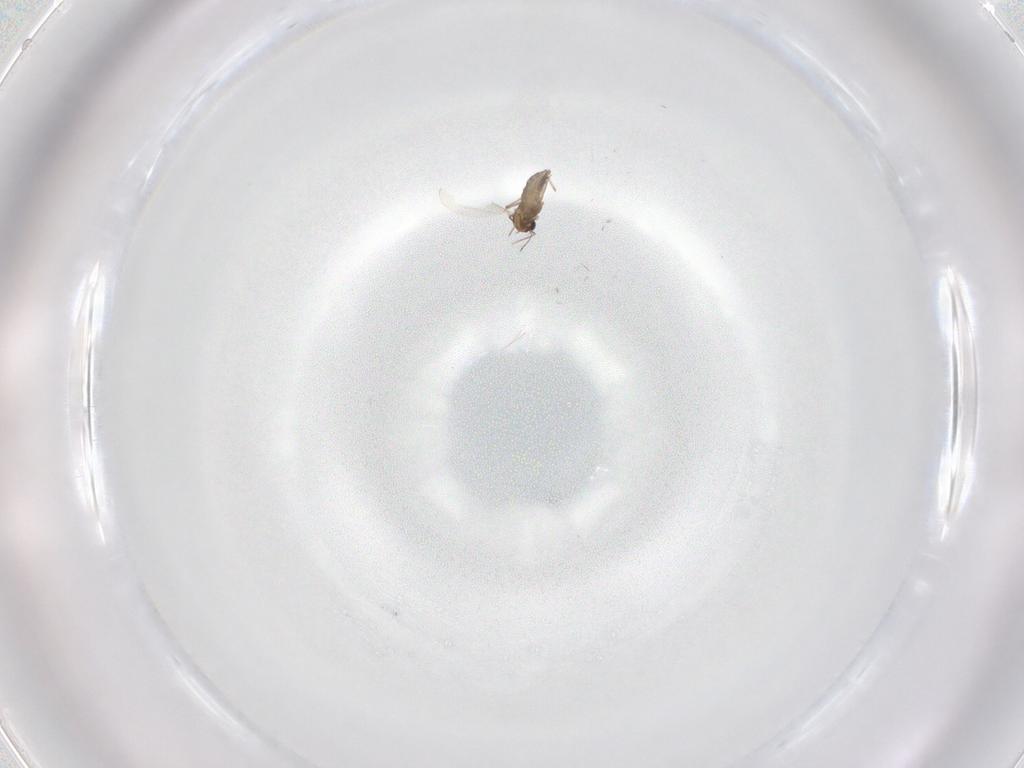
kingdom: Animalia
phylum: Arthropoda
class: Insecta
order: Diptera
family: Chironomidae
